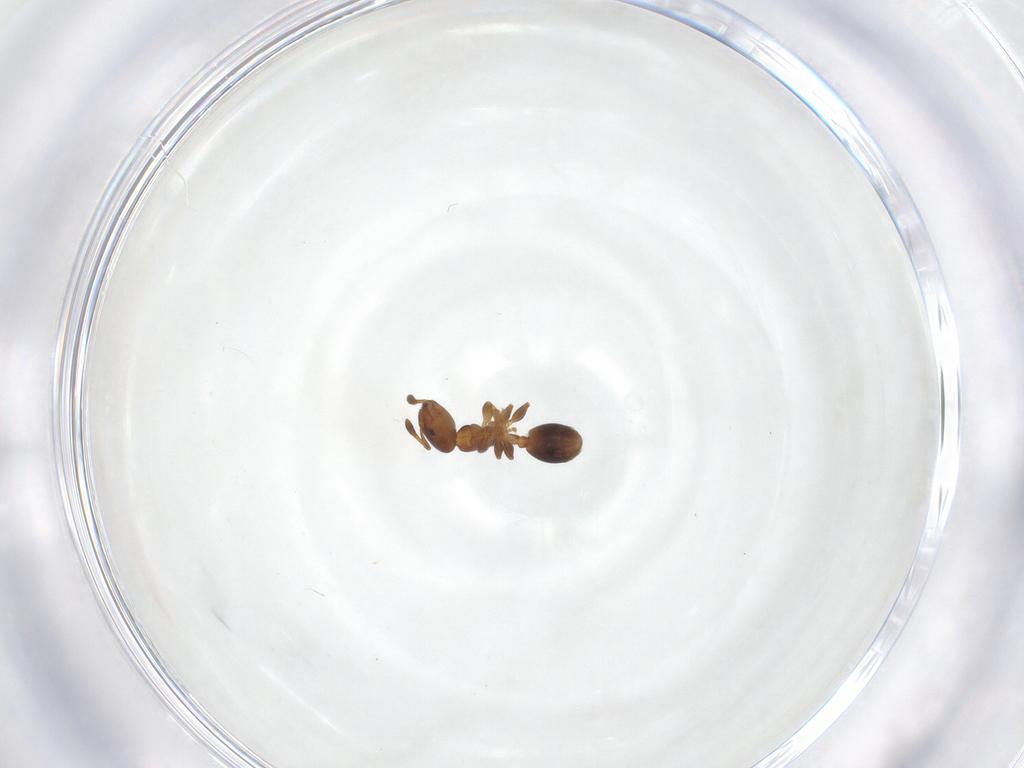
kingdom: Animalia
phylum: Arthropoda
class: Insecta
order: Hymenoptera
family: Formicidae
